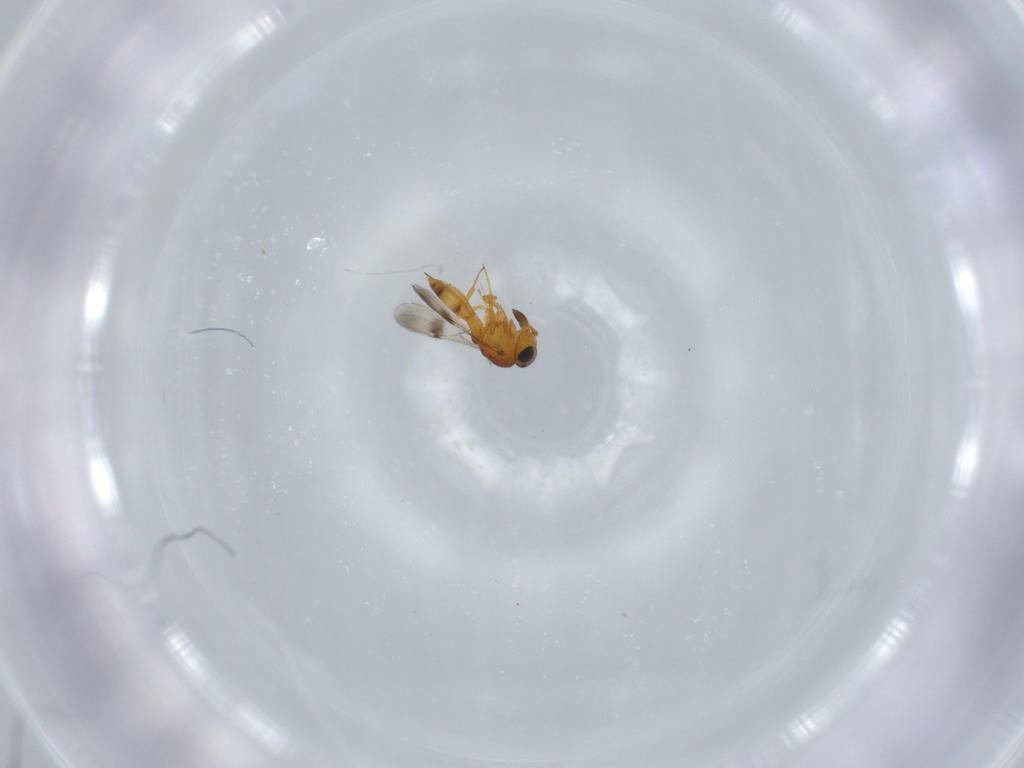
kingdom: Animalia
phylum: Arthropoda
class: Insecta
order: Hymenoptera
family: Scelionidae
